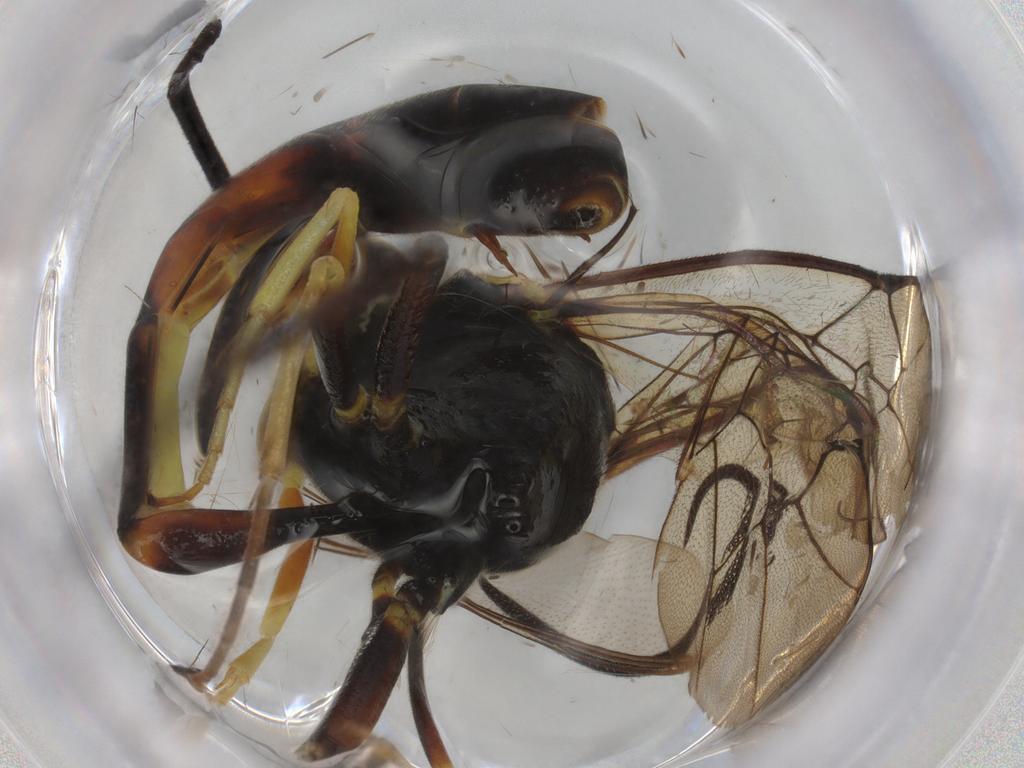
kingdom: Animalia
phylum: Arthropoda
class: Insecta
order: Hymenoptera
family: Ichneumonidae
